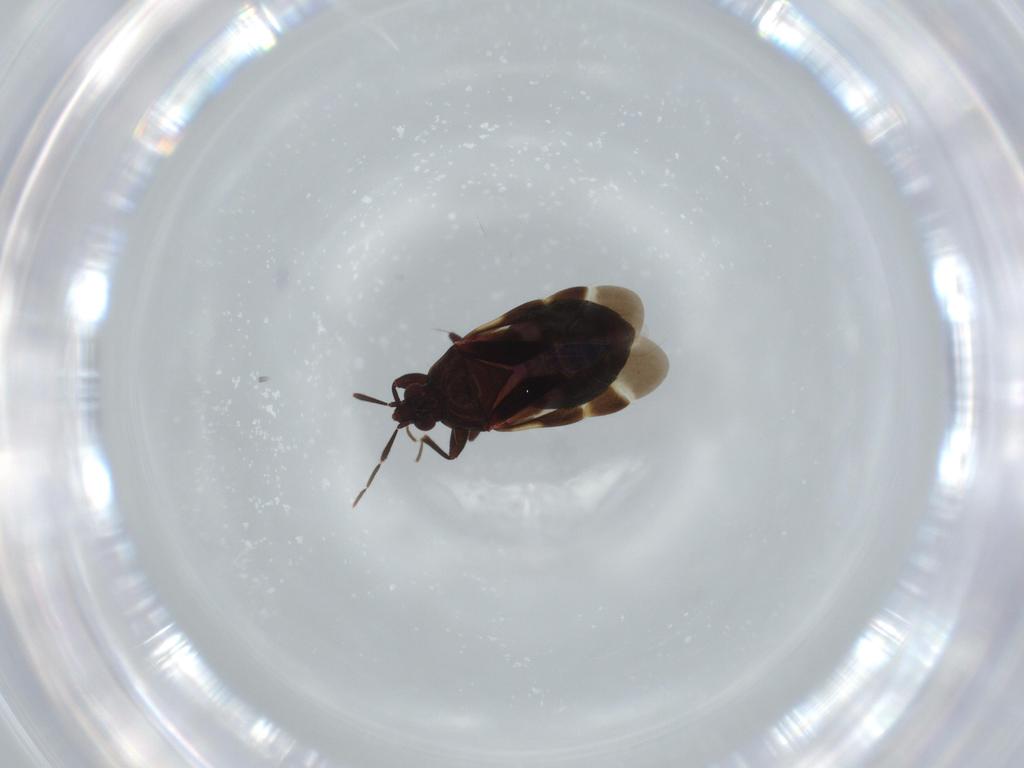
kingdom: Animalia
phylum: Arthropoda
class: Insecta
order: Hemiptera
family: Anthocoridae
